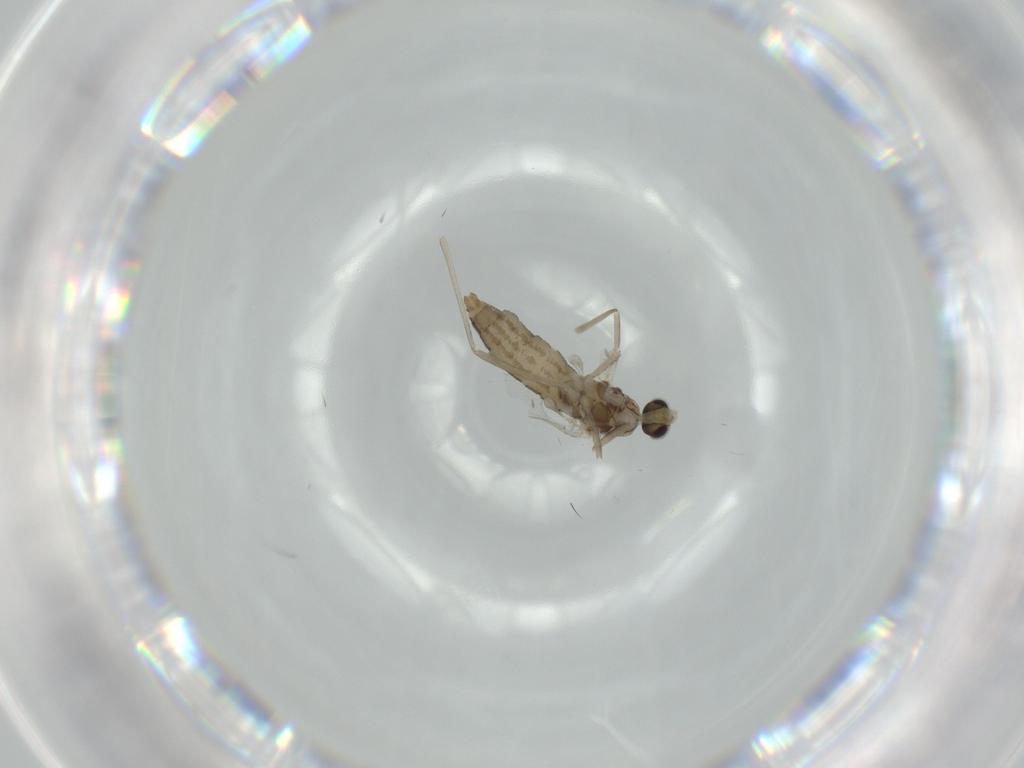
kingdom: Animalia
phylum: Arthropoda
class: Insecta
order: Diptera
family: Cecidomyiidae
